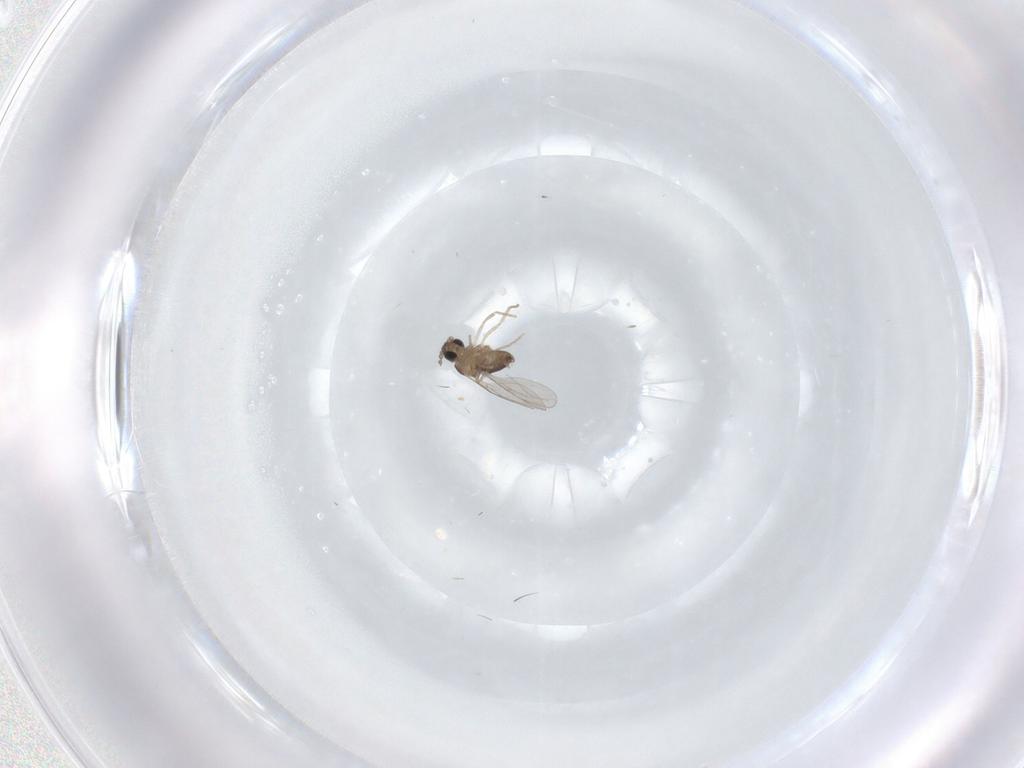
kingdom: Animalia
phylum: Arthropoda
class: Insecta
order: Diptera
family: Cecidomyiidae
